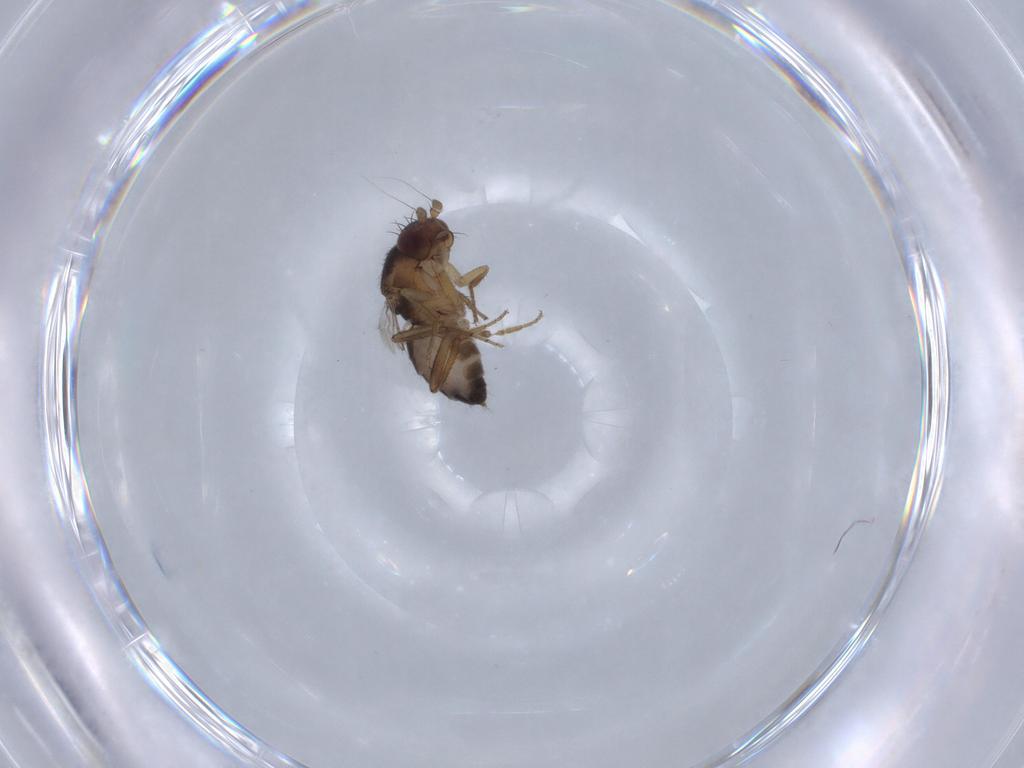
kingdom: Animalia
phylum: Arthropoda
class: Insecta
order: Diptera
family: Sphaeroceridae
